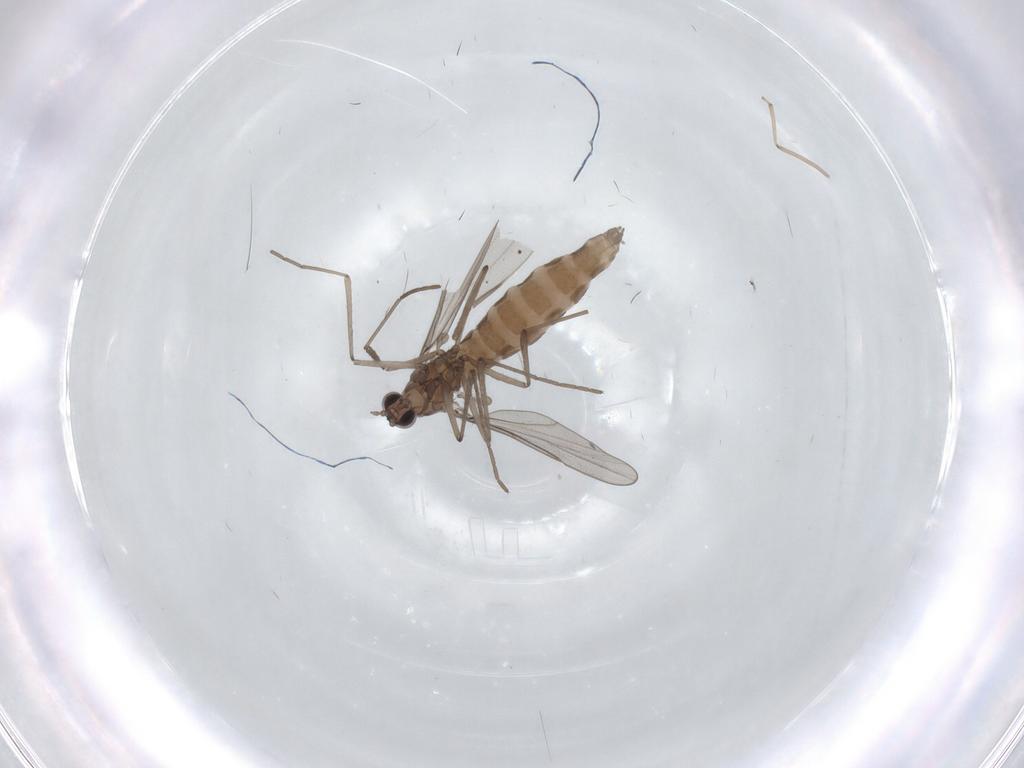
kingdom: Animalia
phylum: Arthropoda
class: Insecta
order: Diptera
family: Cecidomyiidae
